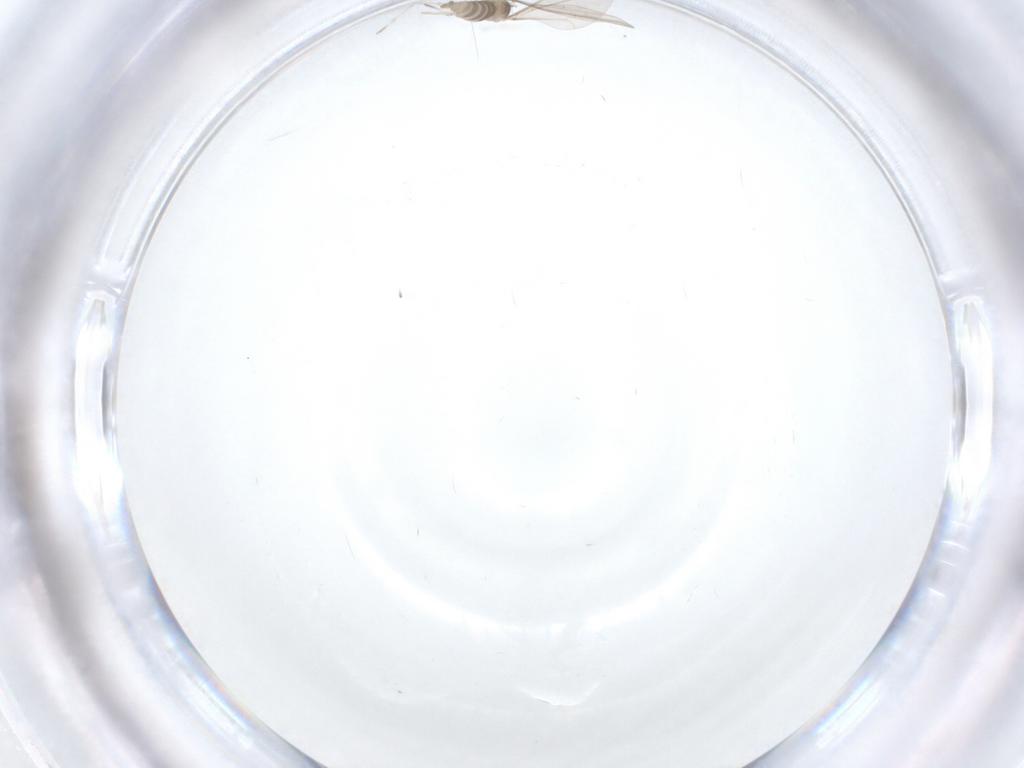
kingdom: Animalia
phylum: Arthropoda
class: Insecta
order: Diptera
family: Cecidomyiidae
